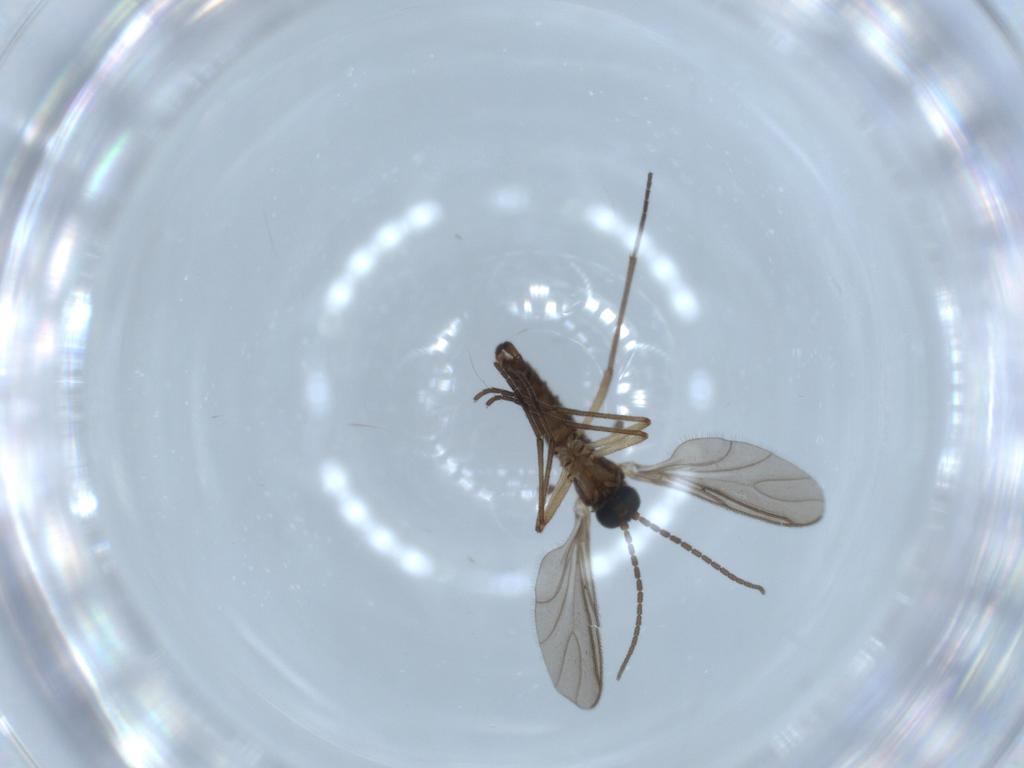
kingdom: Animalia
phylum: Arthropoda
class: Insecta
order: Diptera
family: Sciaridae
